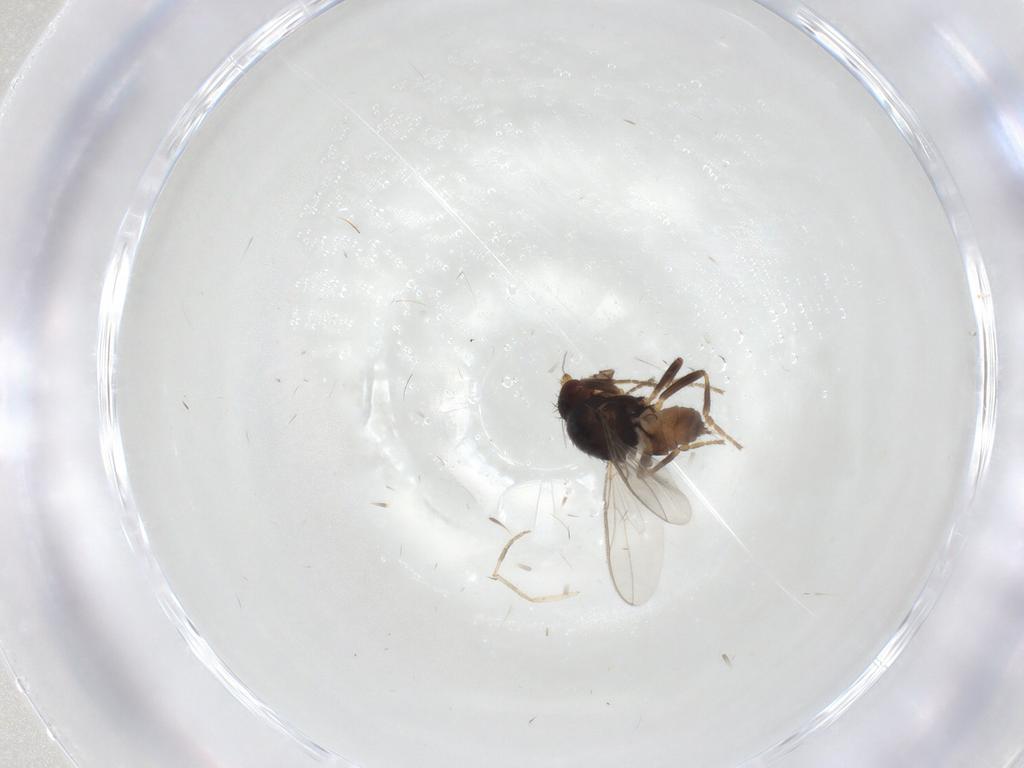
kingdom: Animalia
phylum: Arthropoda
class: Insecta
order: Diptera
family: Sphaeroceridae
